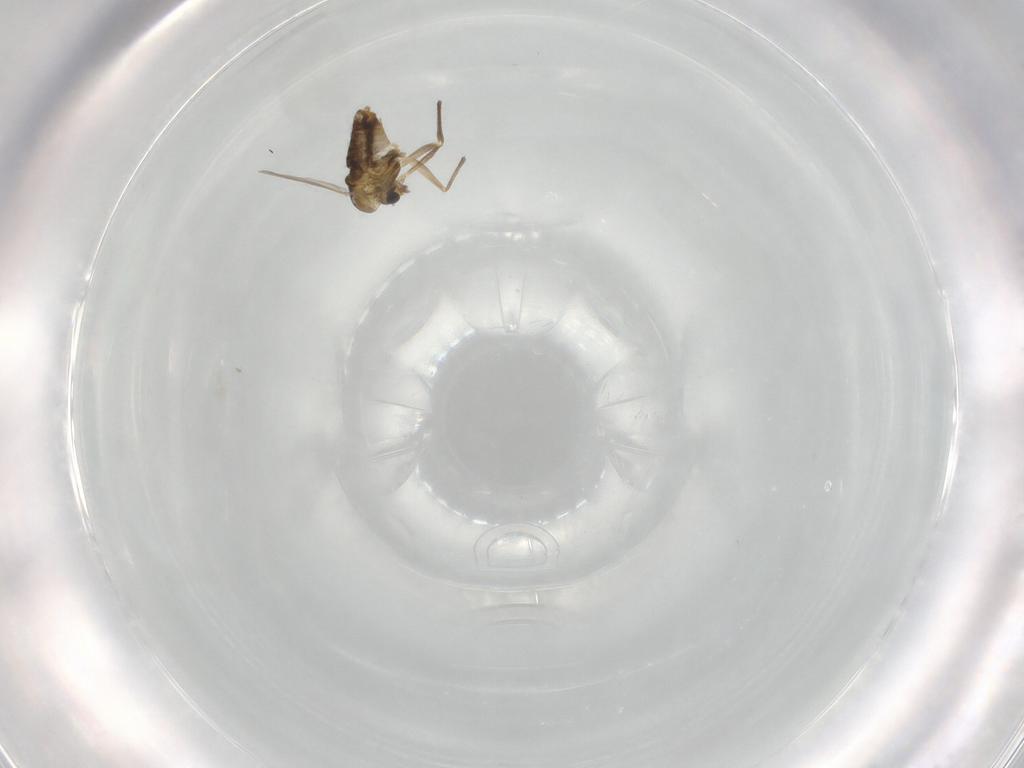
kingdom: Animalia
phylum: Arthropoda
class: Insecta
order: Diptera
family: Chironomidae
